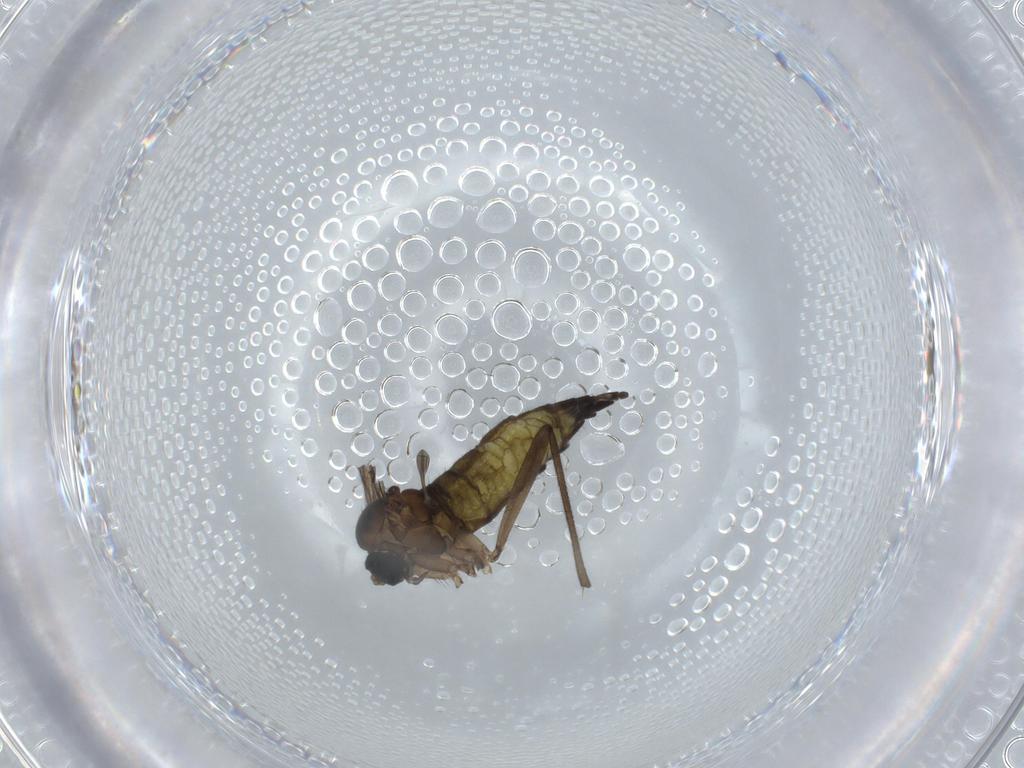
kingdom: Animalia
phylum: Arthropoda
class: Insecta
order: Diptera
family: Sciaridae
